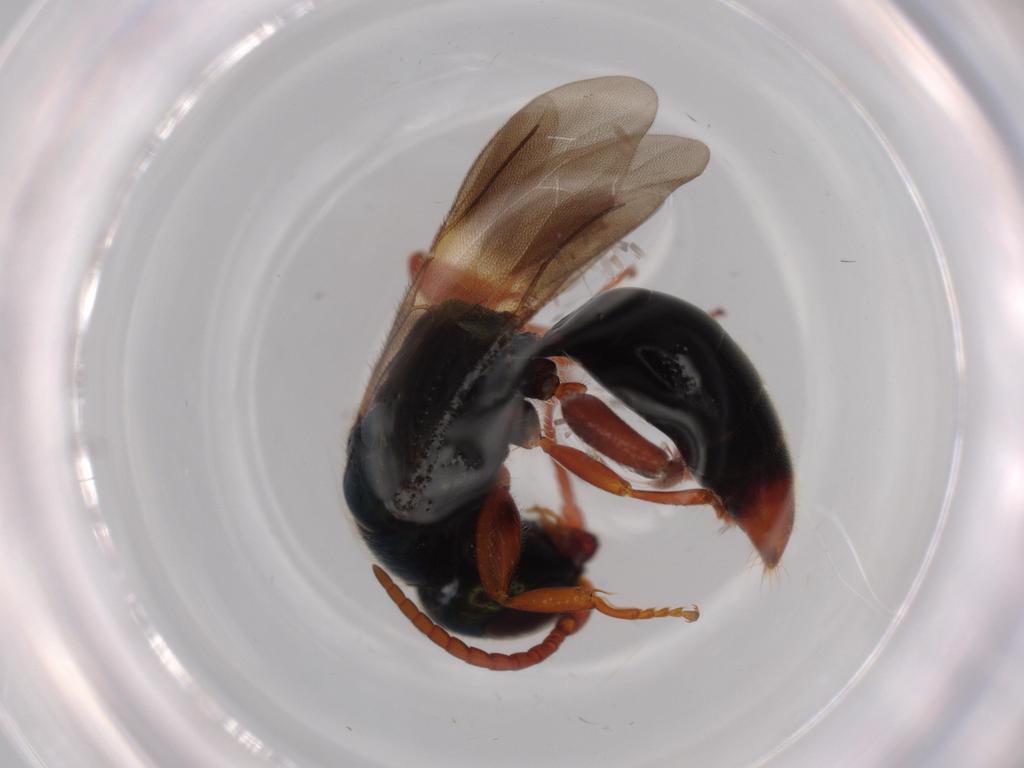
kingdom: Animalia
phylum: Arthropoda
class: Insecta
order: Hymenoptera
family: Bethylidae
